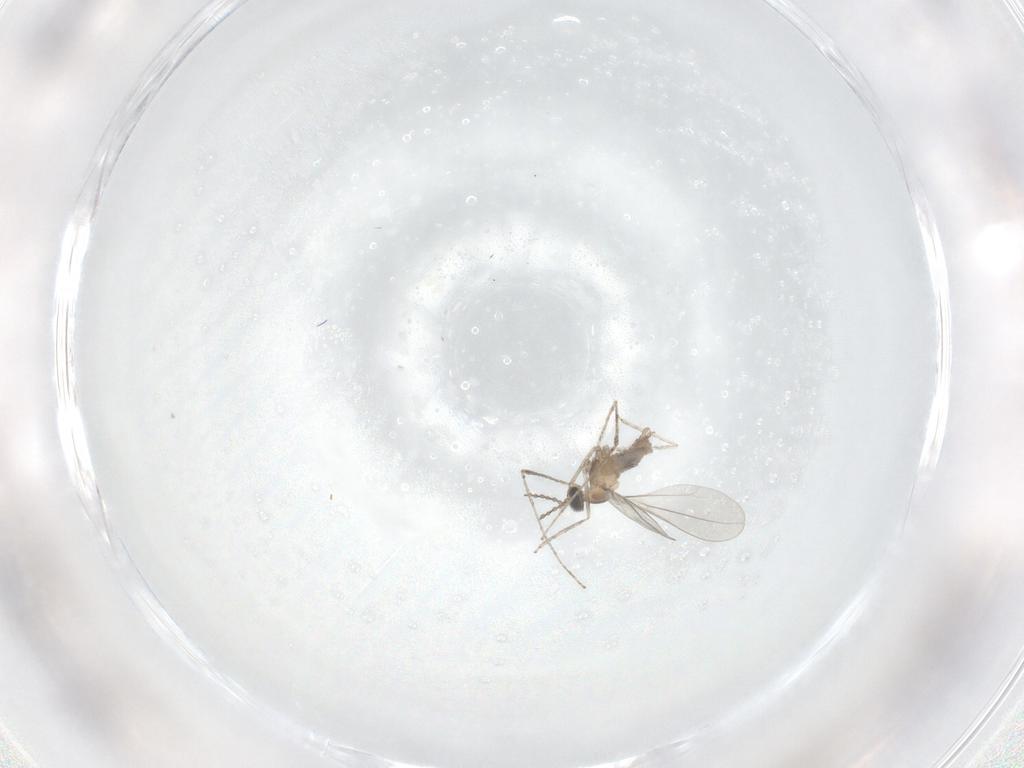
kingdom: Animalia
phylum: Arthropoda
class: Insecta
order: Diptera
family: Cecidomyiidae
